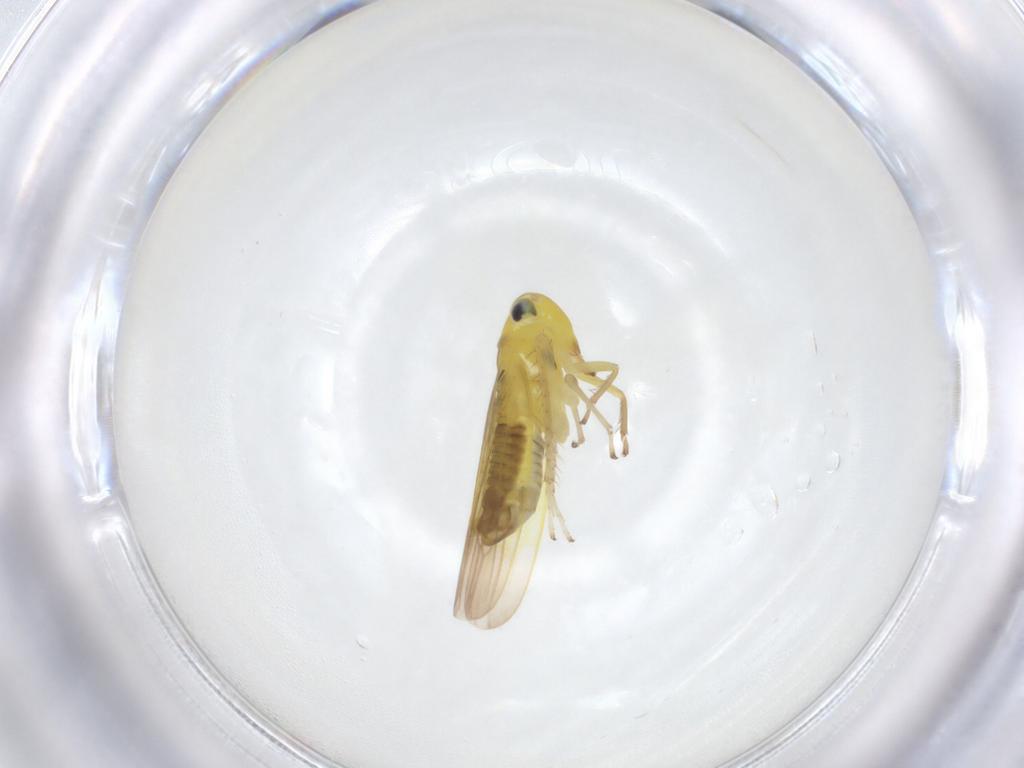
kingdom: Animalia
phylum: Arthropoda
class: Insecta
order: Hemiptera
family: Cicadellidae
